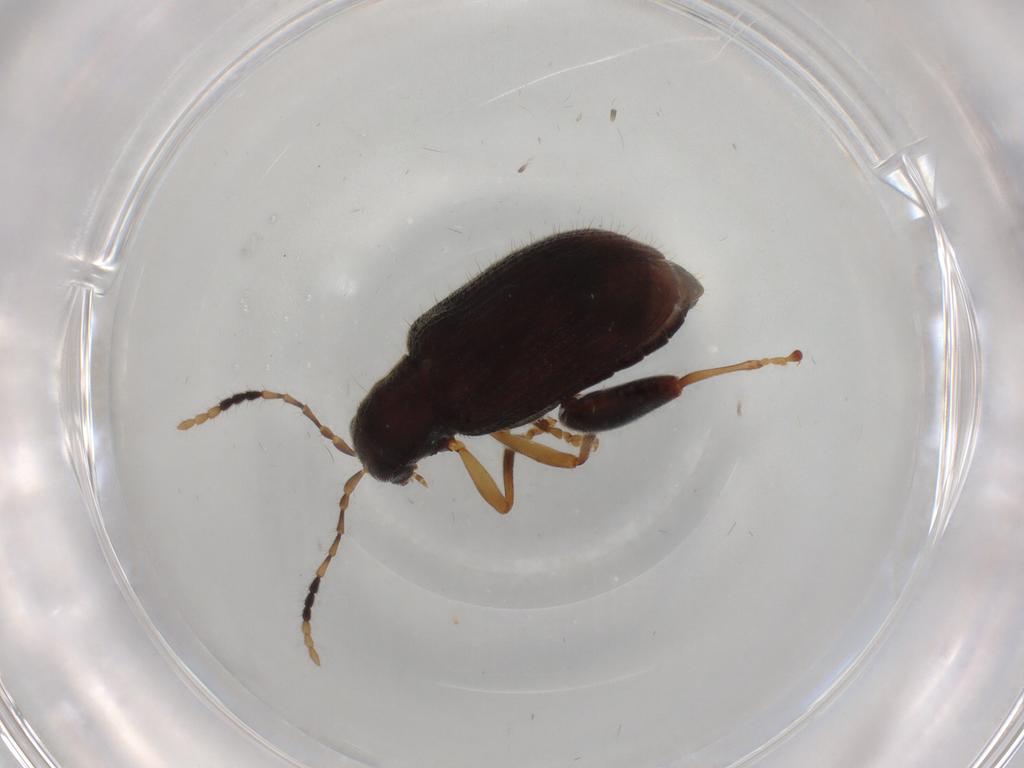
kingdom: Animalia
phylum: Arthropoda
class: Insecta
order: Coleoptera
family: Chrysomelidae
